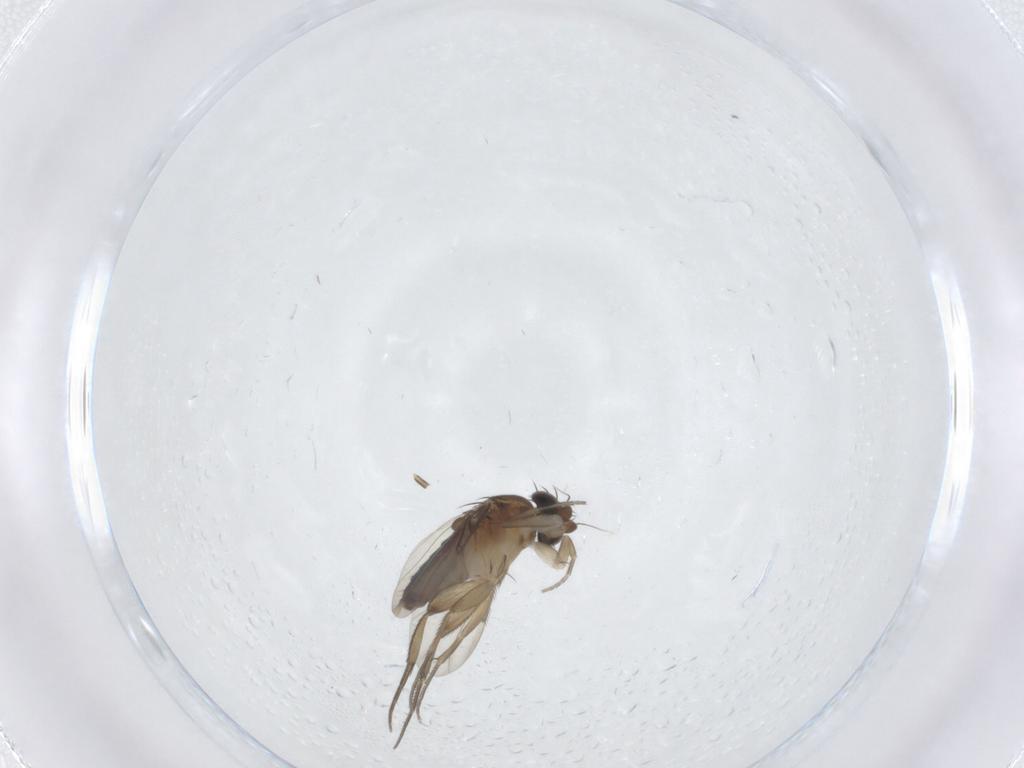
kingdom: Animalia
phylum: Arthropoda
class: Insecta
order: Diptera
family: Phoridae
